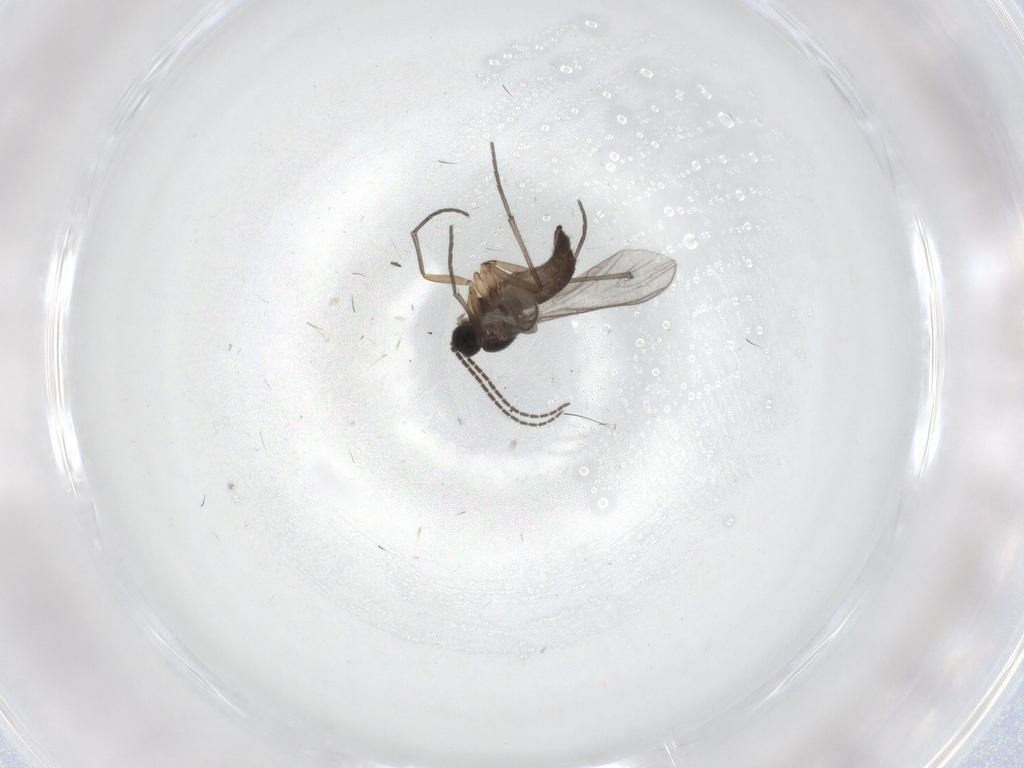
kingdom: Animalia
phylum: Arthropoda
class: Insecta
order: Diptera
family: Sciaridae
